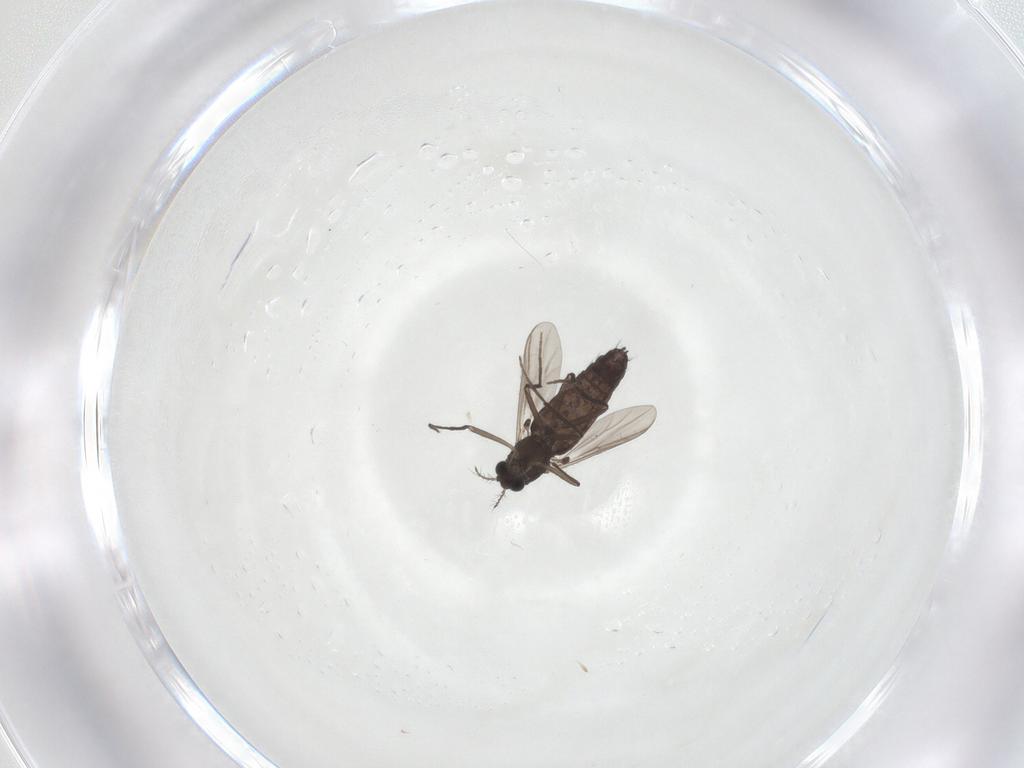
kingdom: Animalia
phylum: Arthropoda
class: Insecta
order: Diptera
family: Chironomidae
